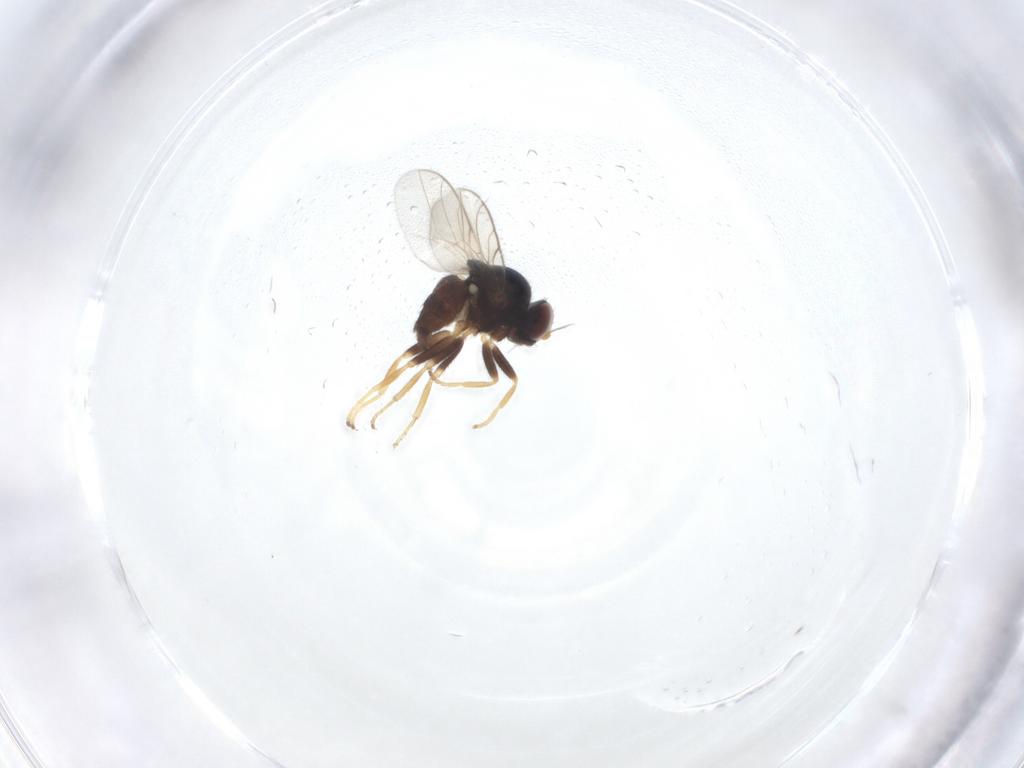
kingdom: Animalia
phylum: Arthropoda
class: Insecta
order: Diptera
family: Chloropidae
